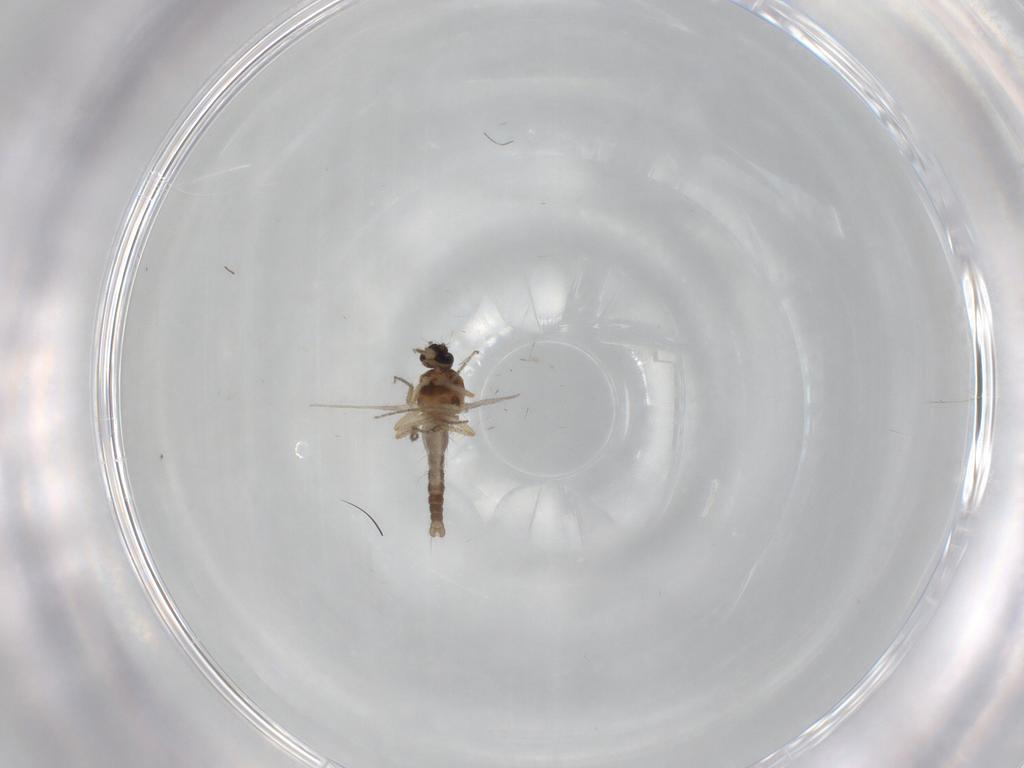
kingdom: Animalia
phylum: Arthropoda
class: Insecta
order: Diptera
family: Ceratopogonidae
